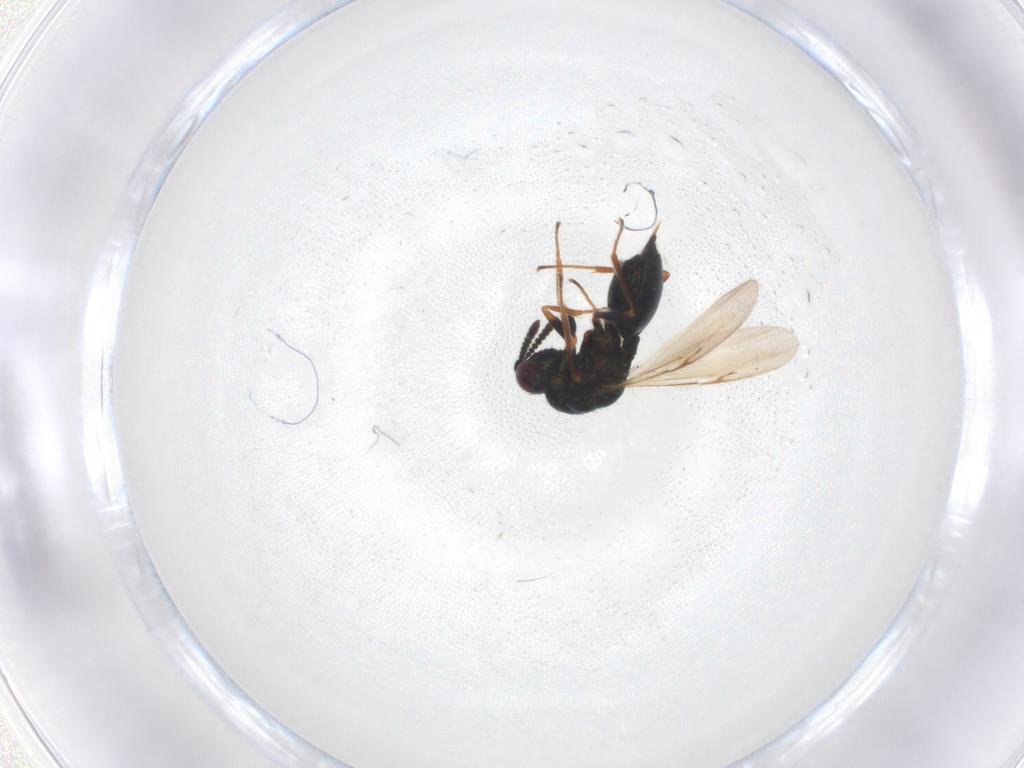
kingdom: Animalia
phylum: Arthropoda
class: Insecta
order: Hymenoptera
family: Chalcidoidea_incertae_sedis
